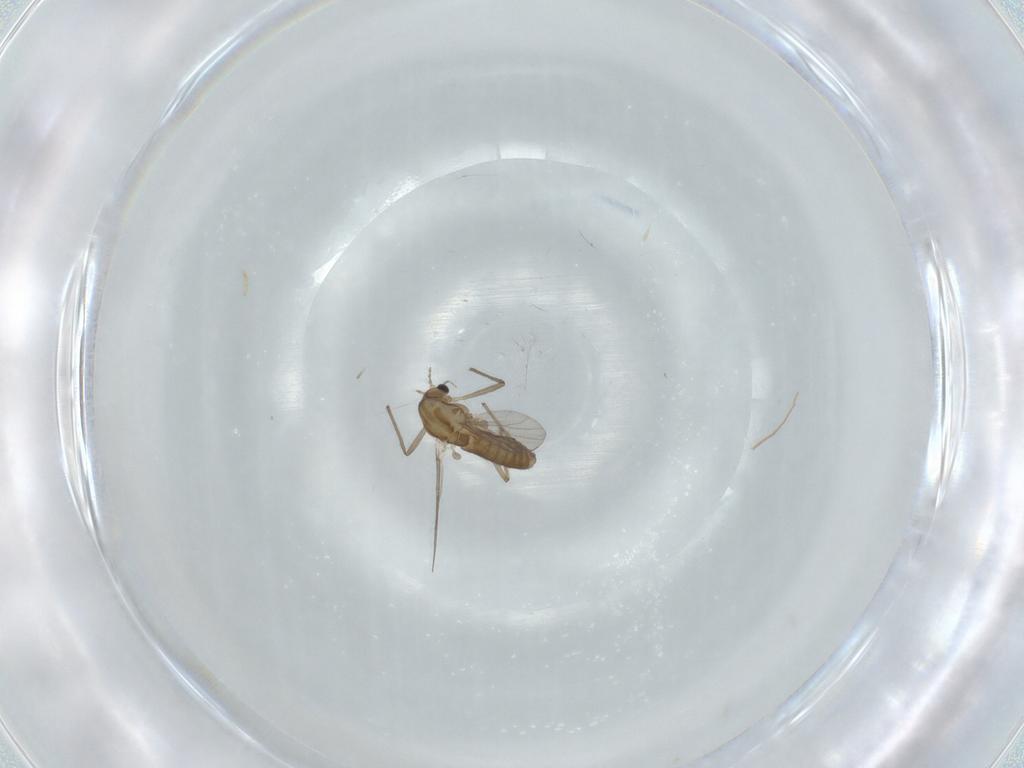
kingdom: Animalia
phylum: Arthropoda
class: Insecta
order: Diptera
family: Chironomidae
